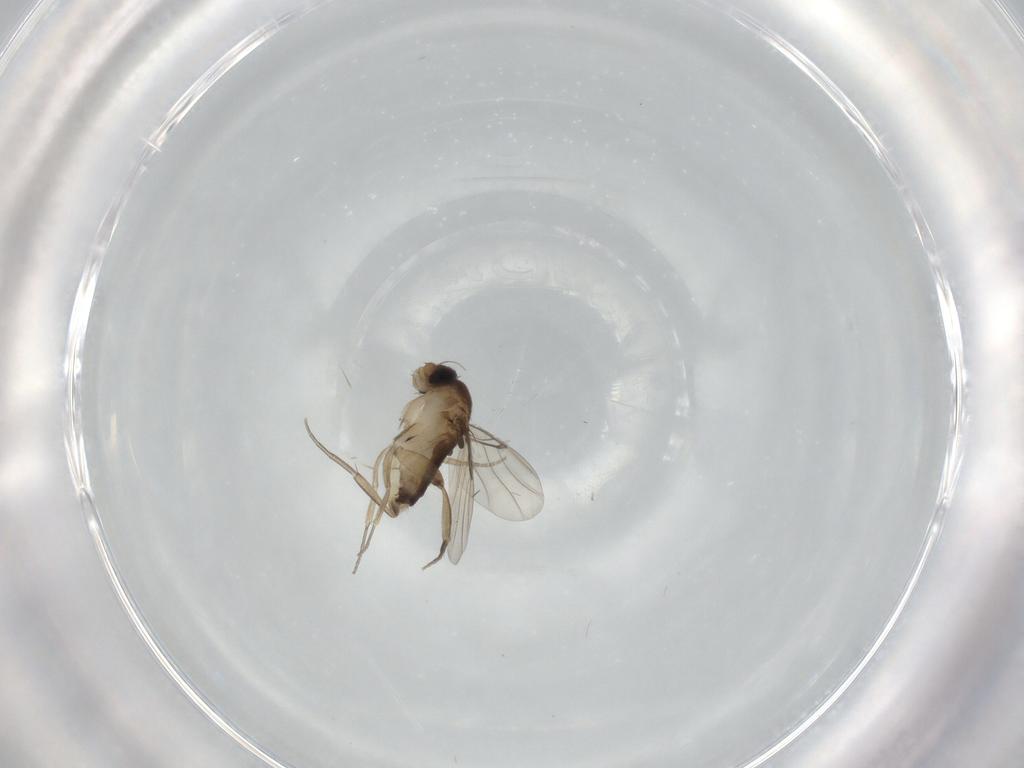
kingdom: Animalia
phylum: Arthropoda
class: Insecta
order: Diptera
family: Phoridae
